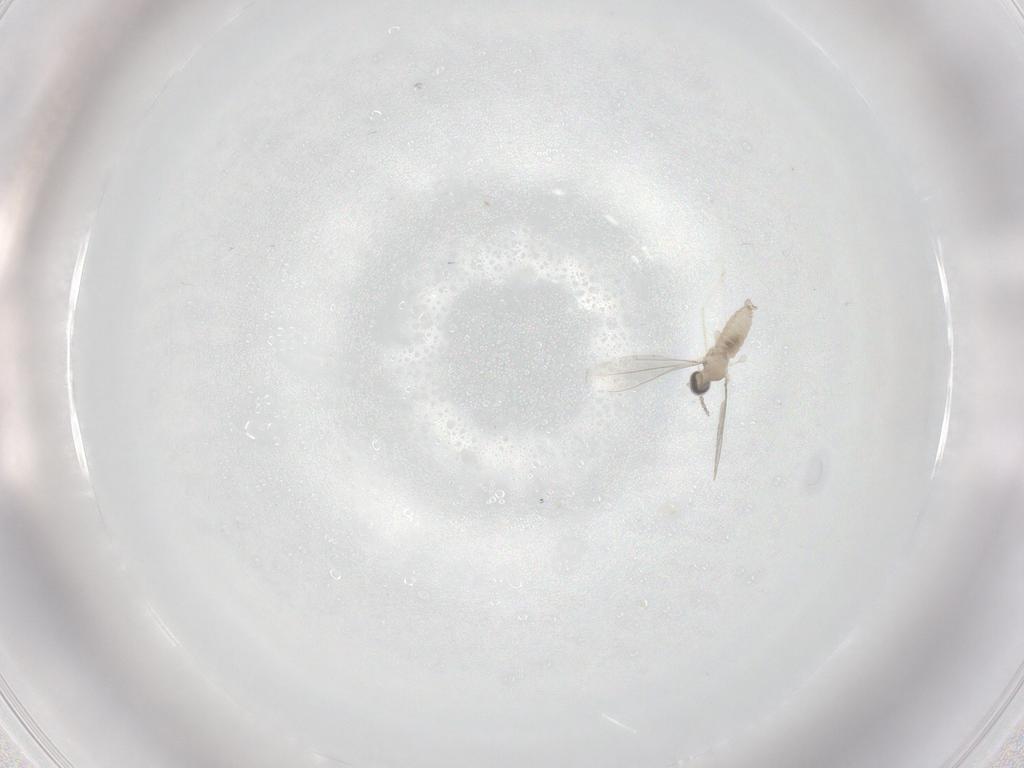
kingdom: Animalia
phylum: Arthropoda
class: Insecta
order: Diptera
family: Cecidomyiidae
